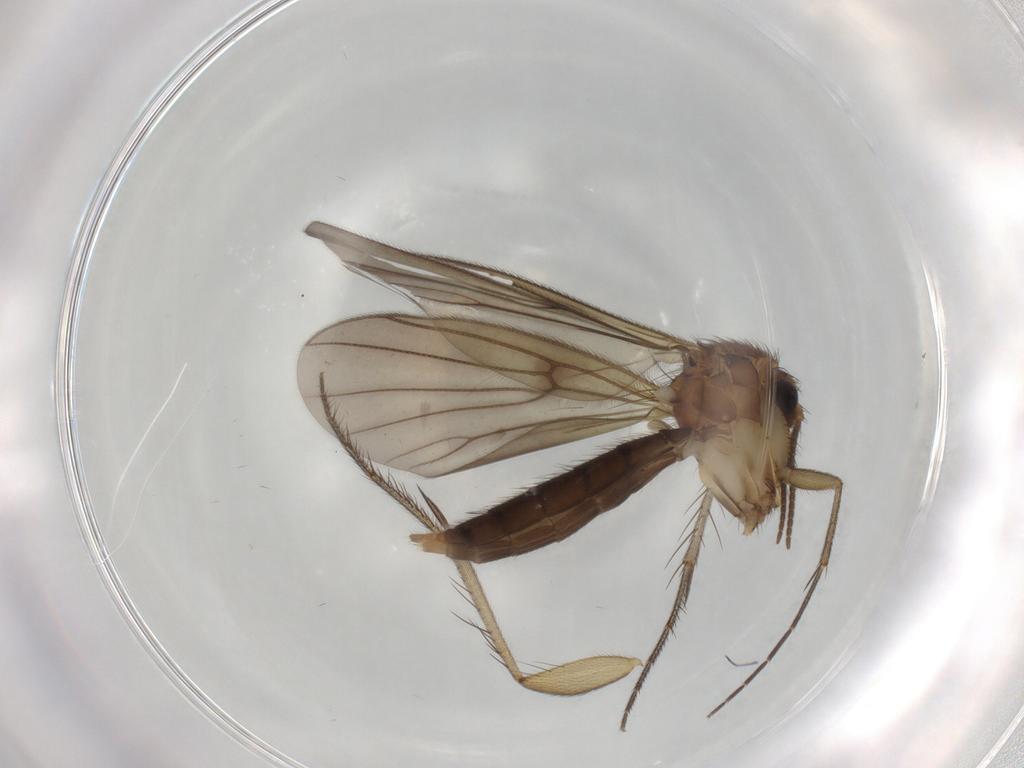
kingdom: Animalia
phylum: Arthropoda
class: Insecta
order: Diptera
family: Mycetophilidae
